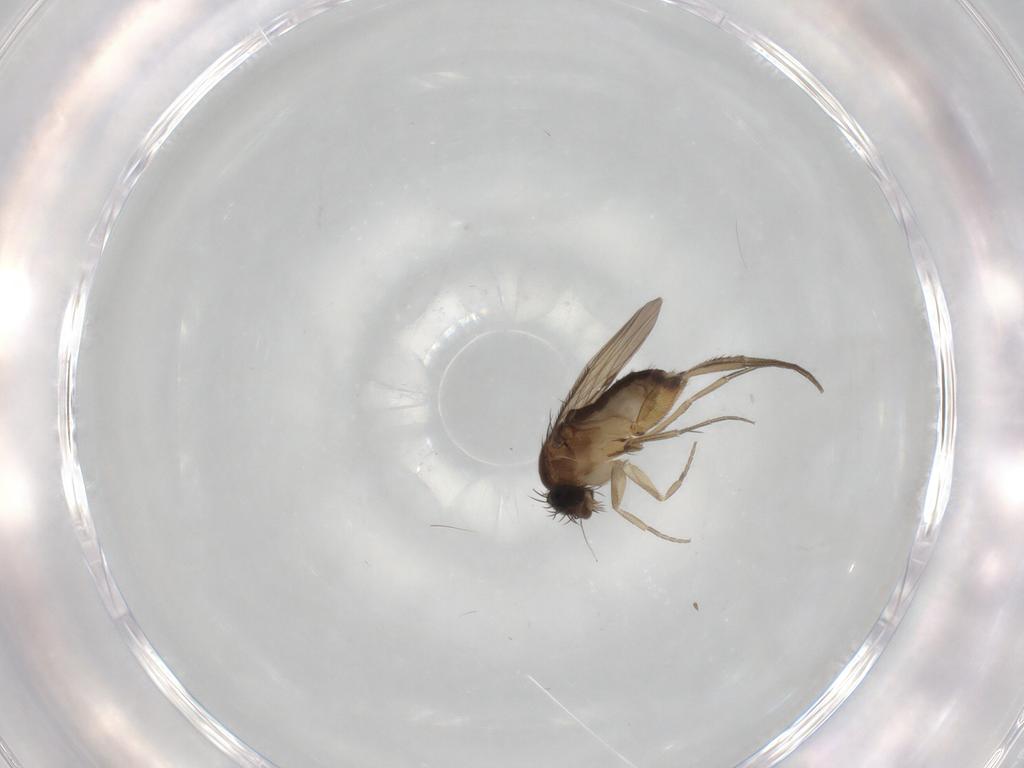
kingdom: Animalia
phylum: Arthropoda
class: Insecta
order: Diptera
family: Phoridae
